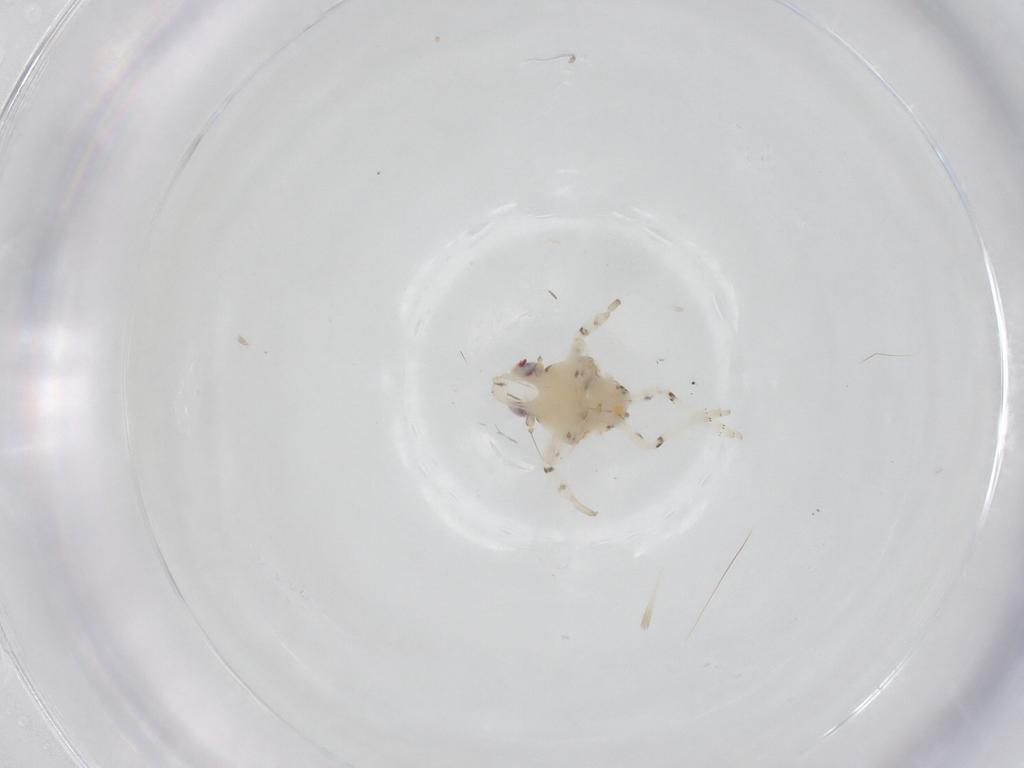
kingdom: Animalia
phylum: Arthropoda
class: Insecta
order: Diptera
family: Sciaridae
